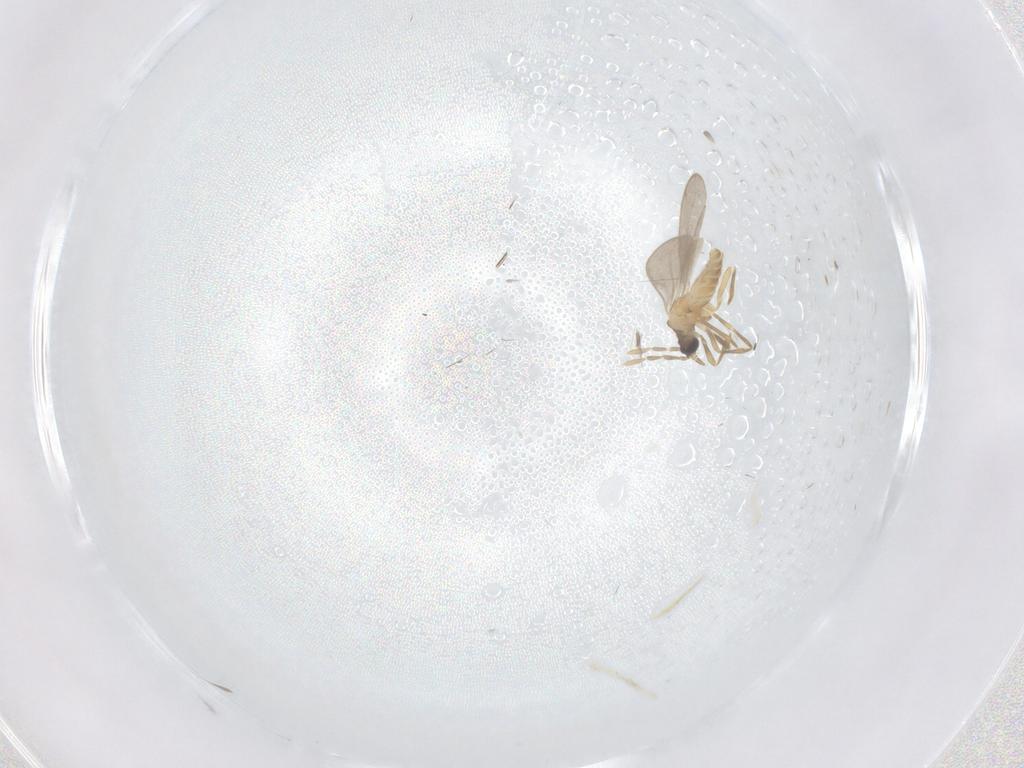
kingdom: Animalia
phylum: Arthropoda
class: Insecta
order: Hemiptera
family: Enicocephalidae
